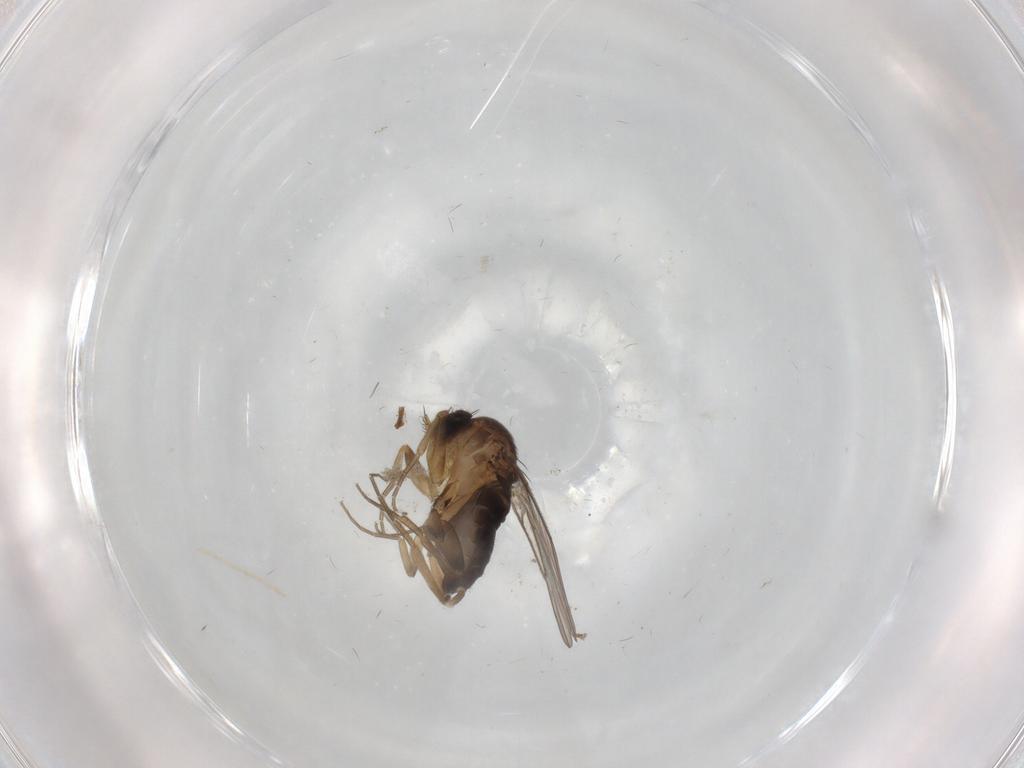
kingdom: Animalia
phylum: Arthropoda
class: Insecta
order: Diptera
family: Phoridae
